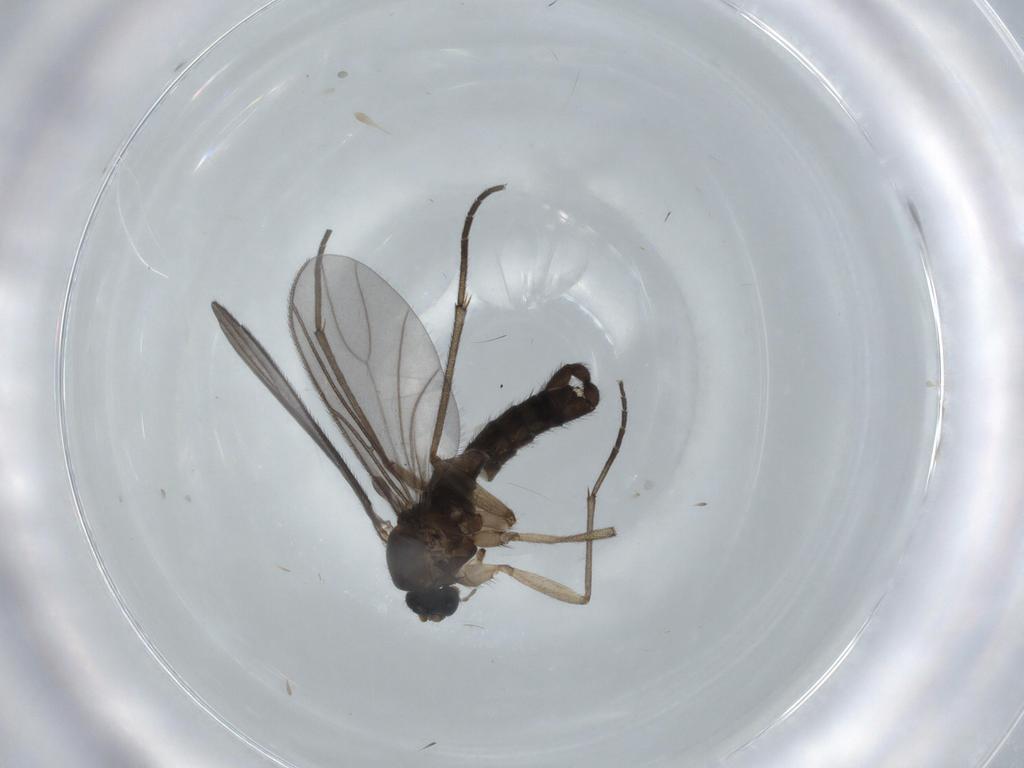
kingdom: Animalia
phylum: Arthropoda
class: Insecta
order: Diptera
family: Sciaridae
